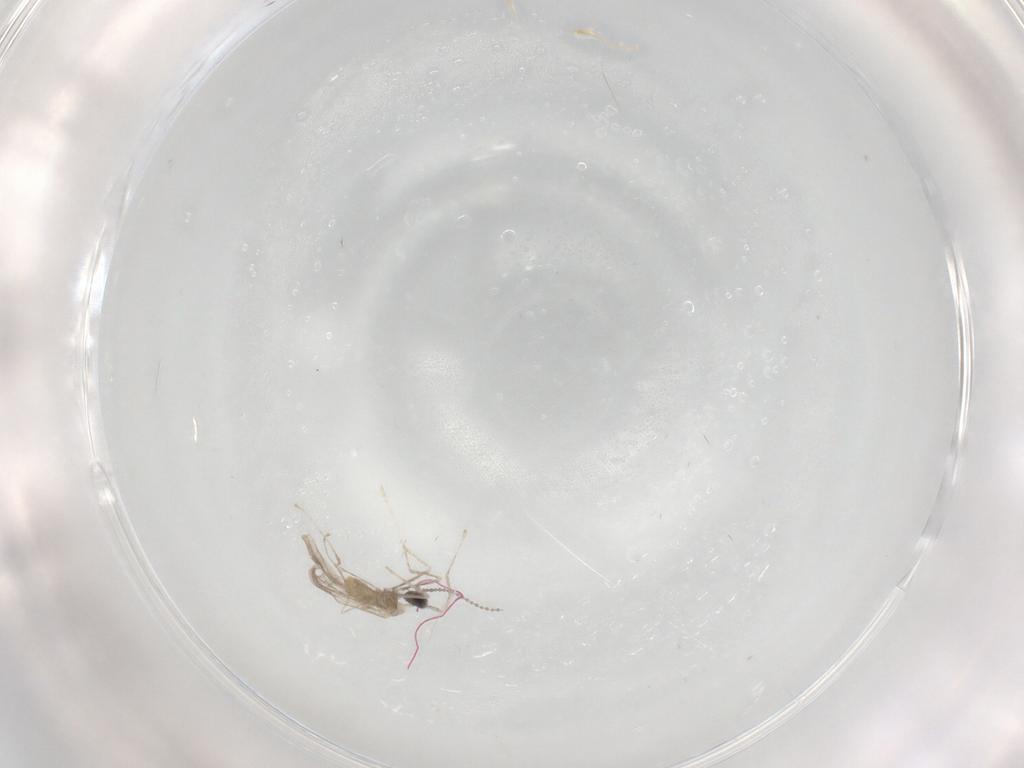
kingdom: Animalia
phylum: Arthropoda
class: Insecta
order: Diptera
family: Cecidomyiidae
